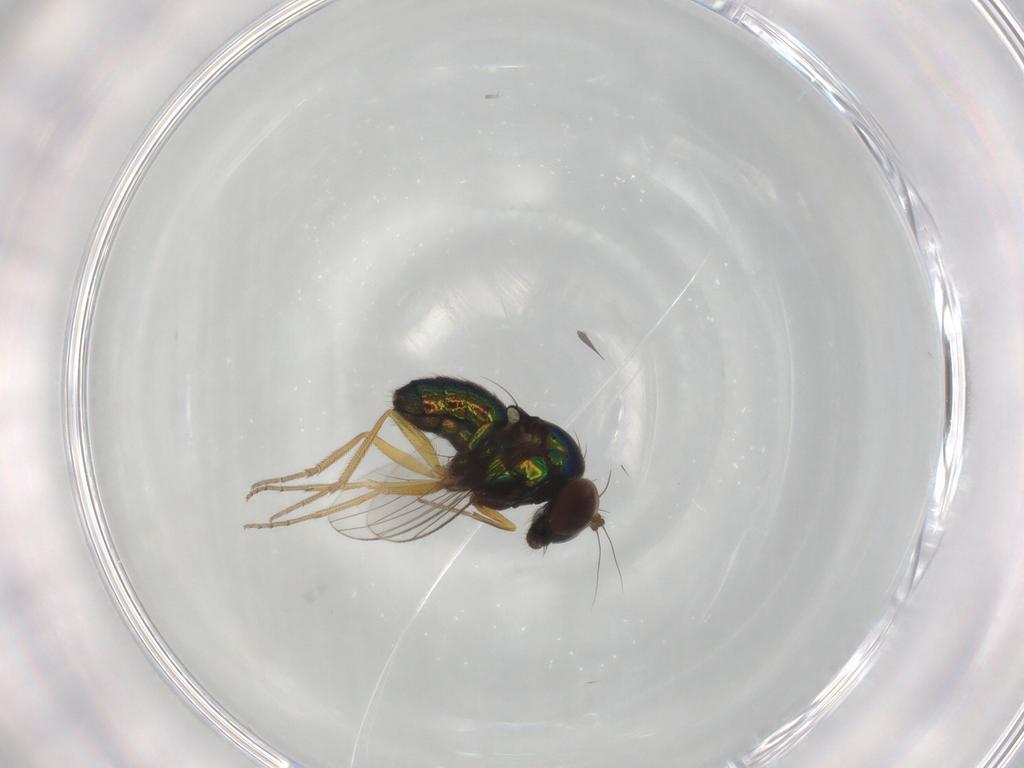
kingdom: Animalia
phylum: Arthropoda
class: Insecta
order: Diptera
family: Dolichopodidae
